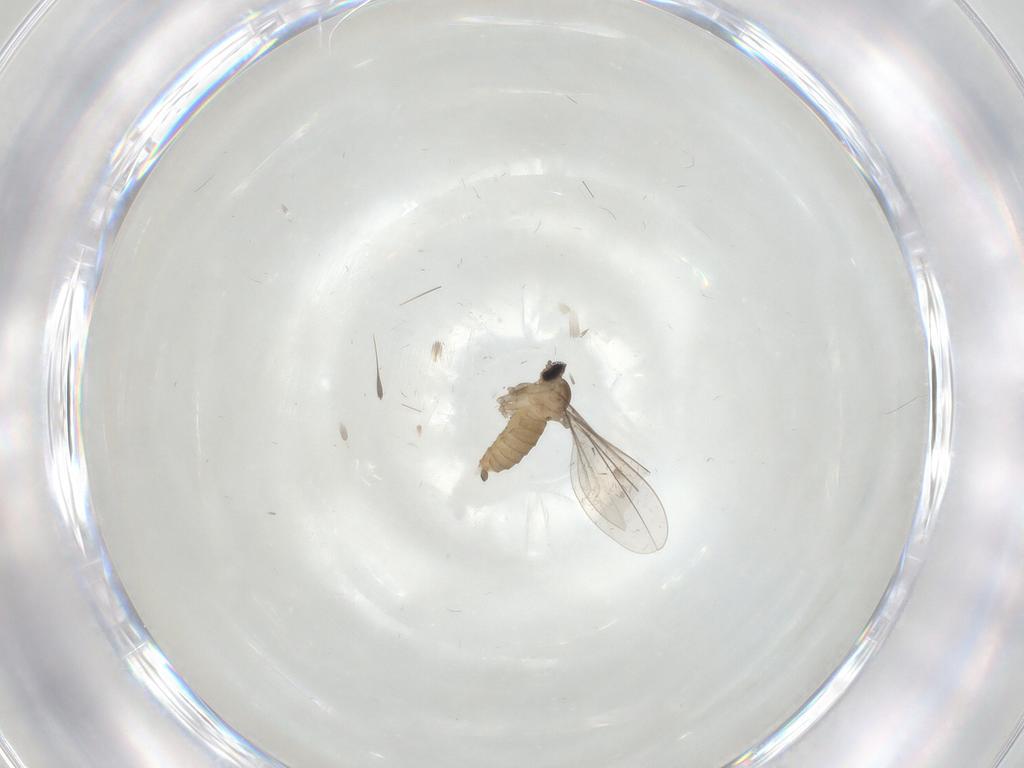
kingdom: Animalia
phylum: Arthropoda
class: Insecta
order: Diptera
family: Cecidomyiidae
